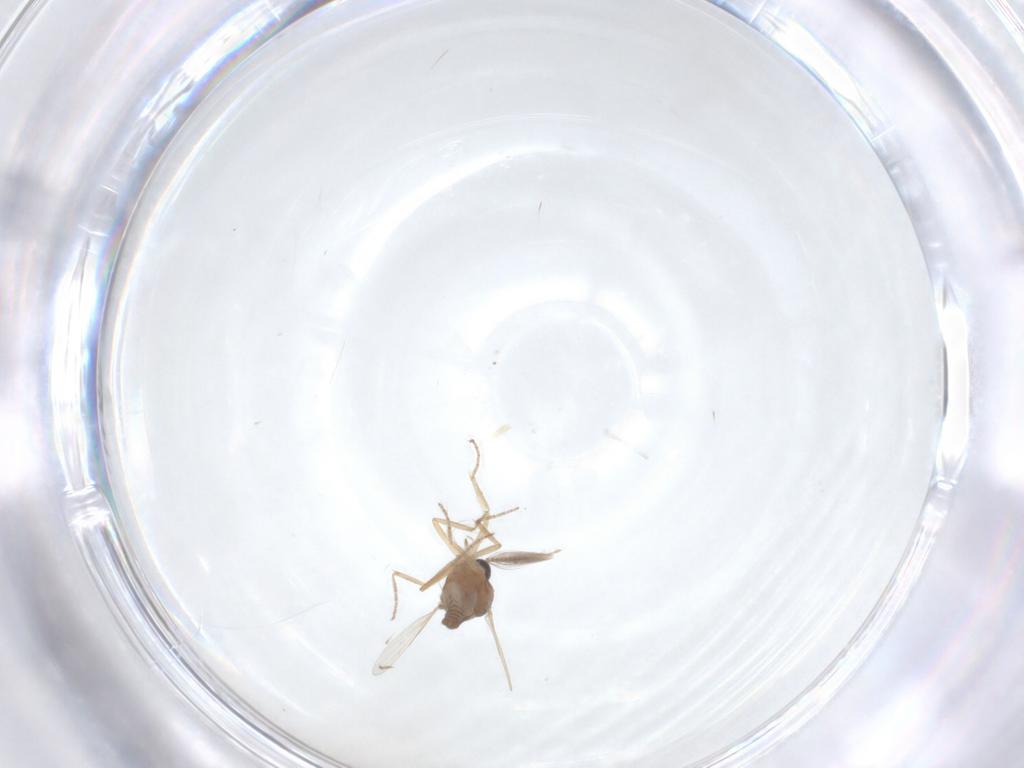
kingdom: Animalia
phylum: Arthropoda
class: Insecta
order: Diptera
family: Ceratopogonidae
